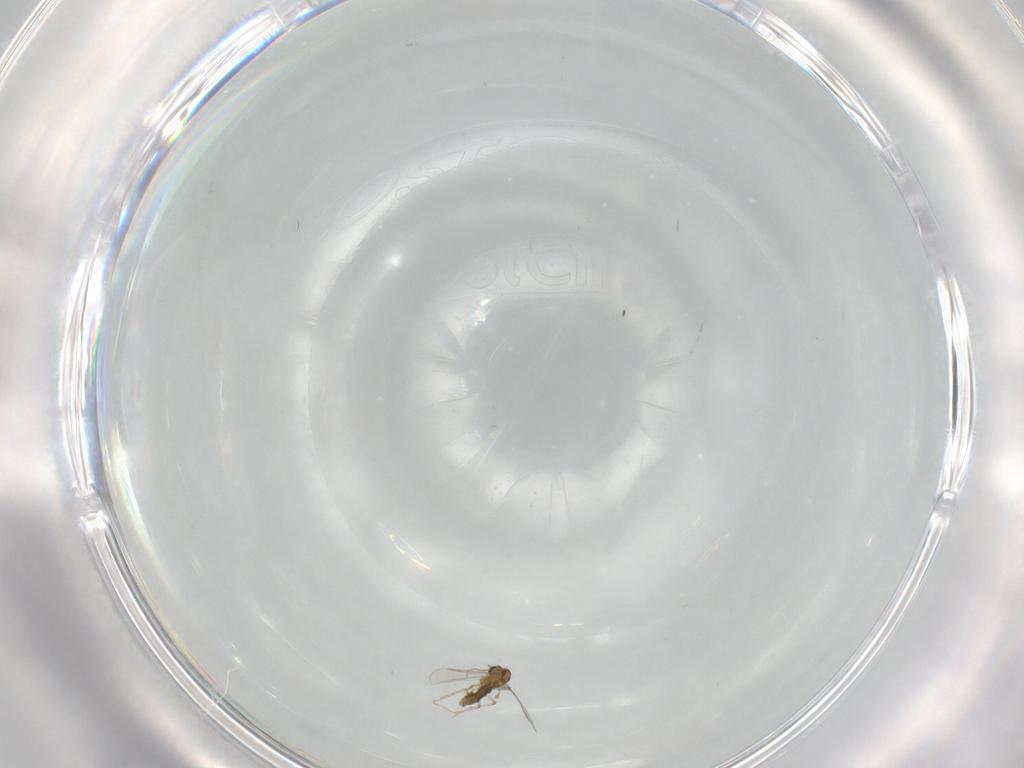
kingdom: Animalia
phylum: Arthropoda
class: Insecta
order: Diptera
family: Chironomidae
